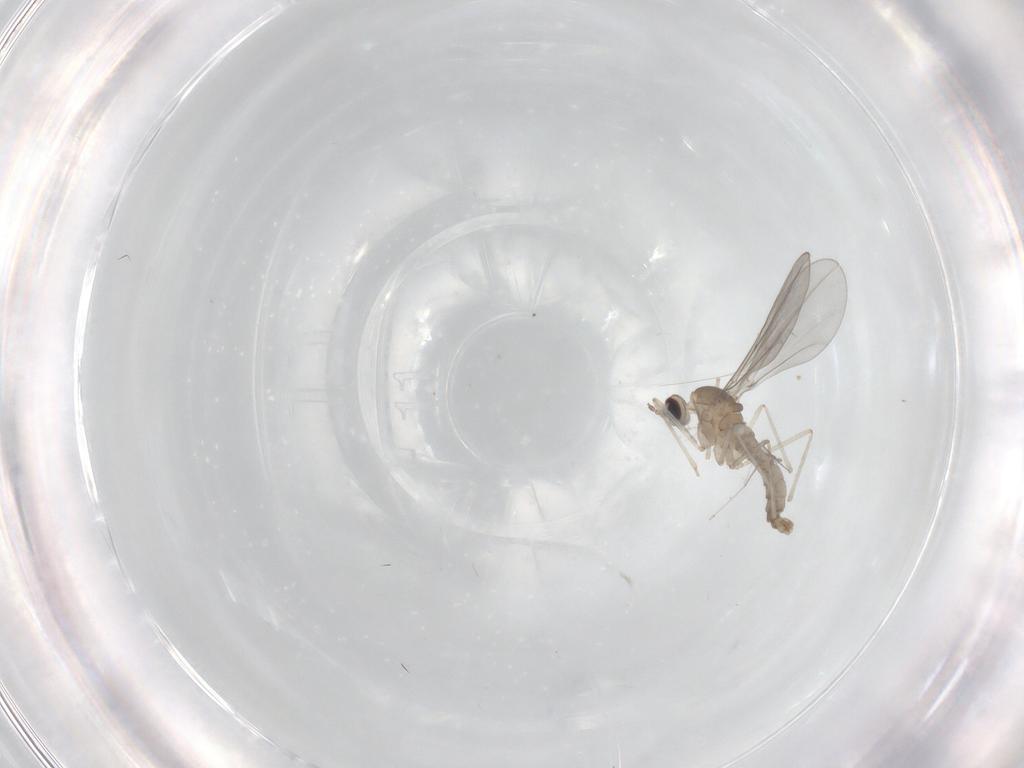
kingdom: Animalia
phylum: Arthropoda
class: Insecta
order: Diptera
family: Cecidomyiidae
